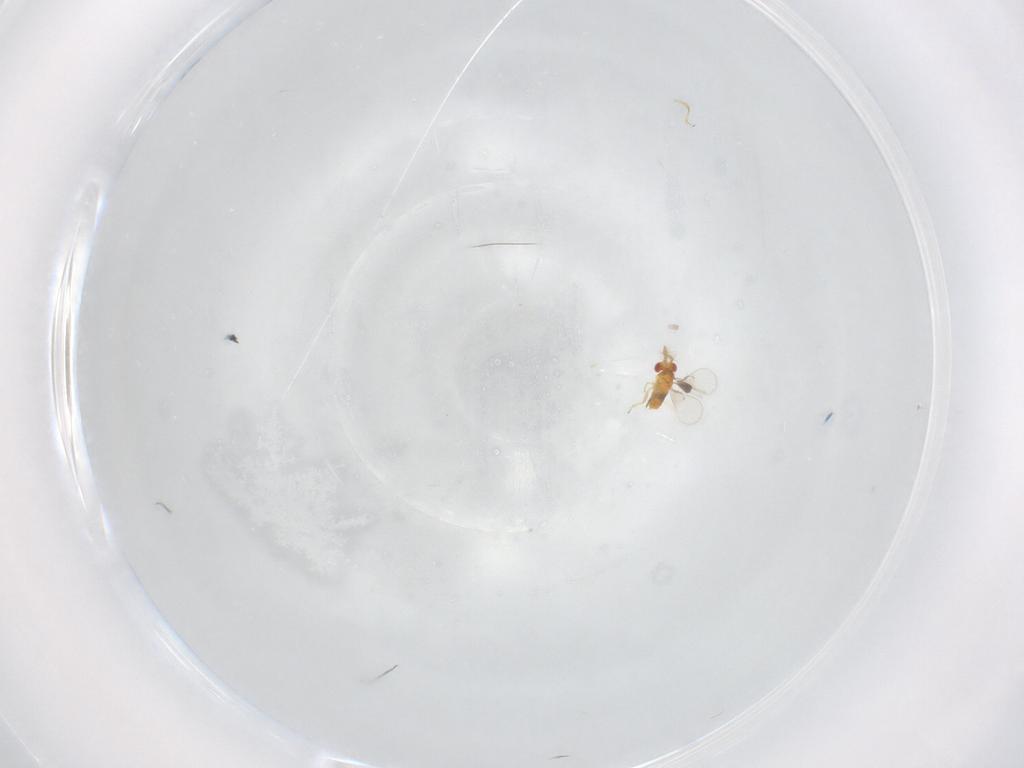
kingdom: Animalia
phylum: Arthropoda
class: Insecta
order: Hymenoptera
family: Trichogrammatidae
